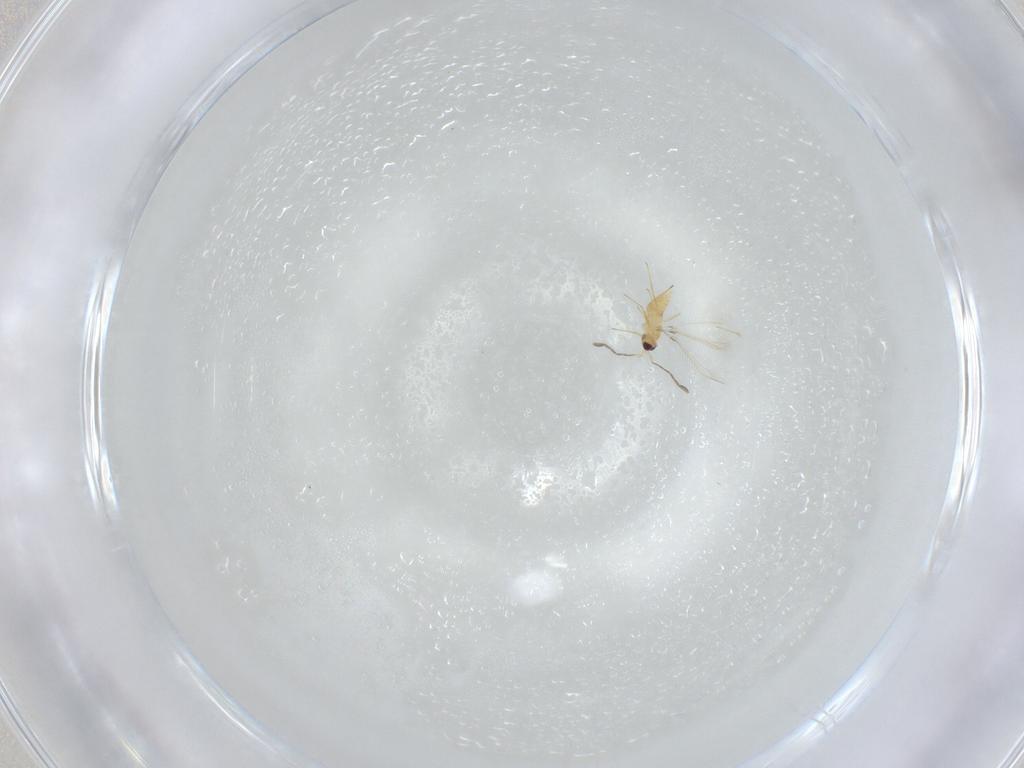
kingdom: Animalia
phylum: Arthropoda
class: Insecta
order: Hymenoptera
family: Mymaridae
